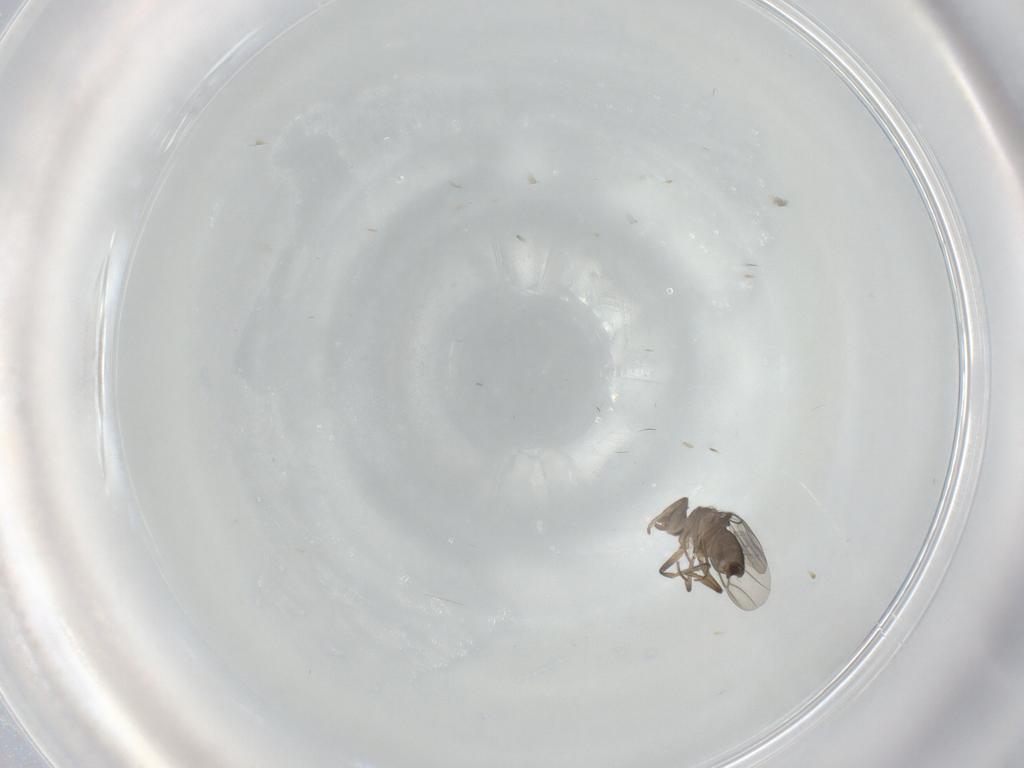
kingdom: Animalia
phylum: Arthropoda
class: Insecta
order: Diptera
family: Phoridae
